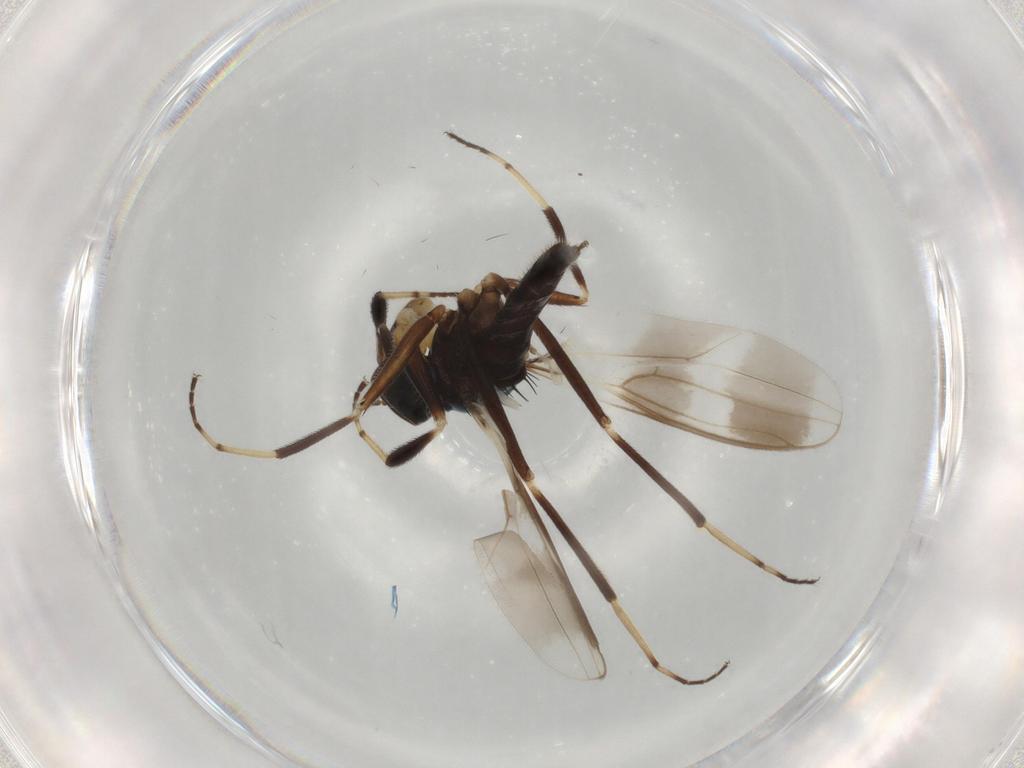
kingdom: Animalia
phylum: Arthropoda
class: Insecta
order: Diptera
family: Hybotidae
